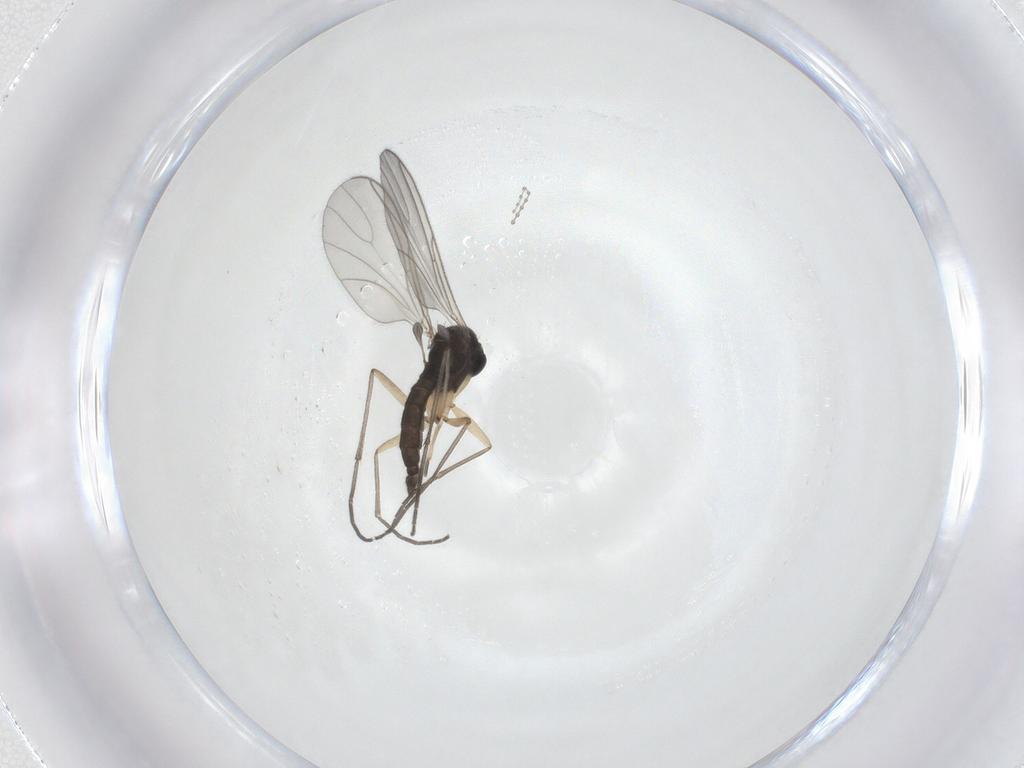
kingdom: Animalia
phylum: Arthropoda
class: Insecta
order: Diptera
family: Sciaridae
